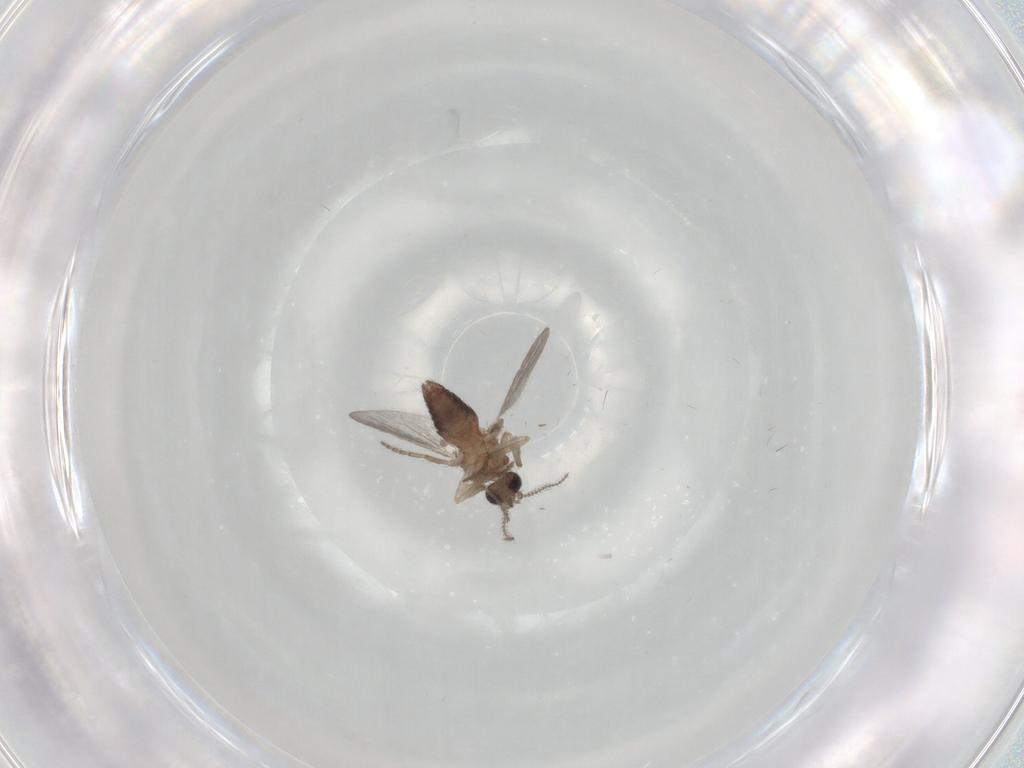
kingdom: Animalia
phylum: Arthropoda
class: Insecta
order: Diptera
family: Ceratopogonidae
